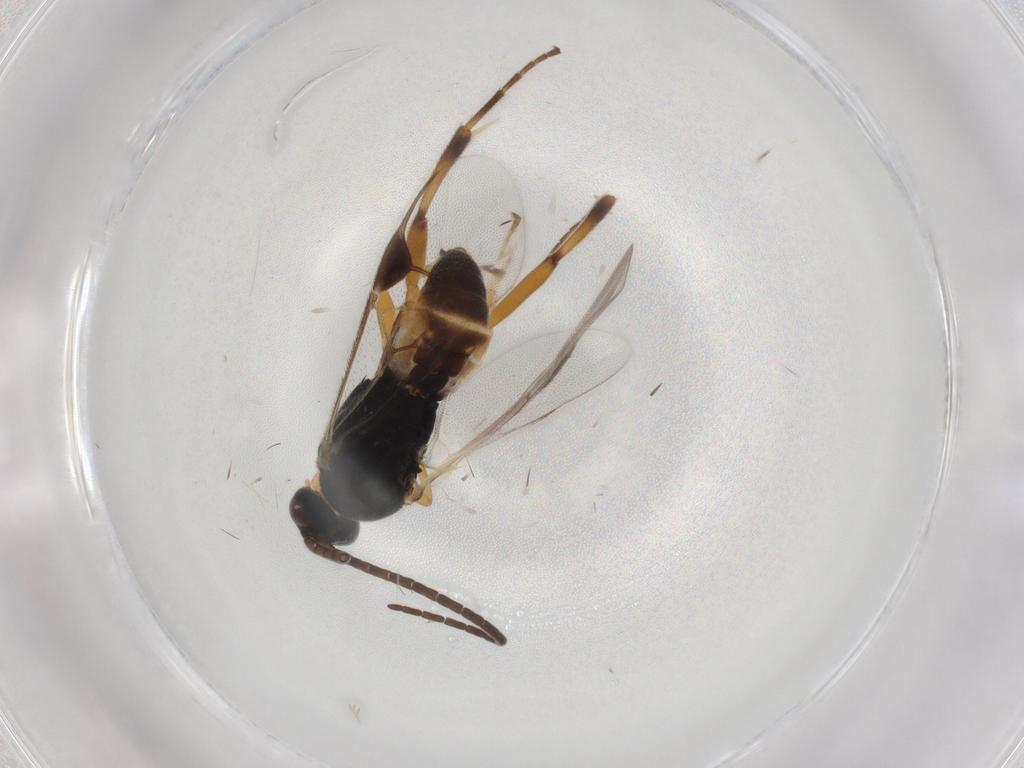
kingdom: Animalia
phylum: Arthropoda
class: Insecta
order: Hymenoptera
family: Braconidae
